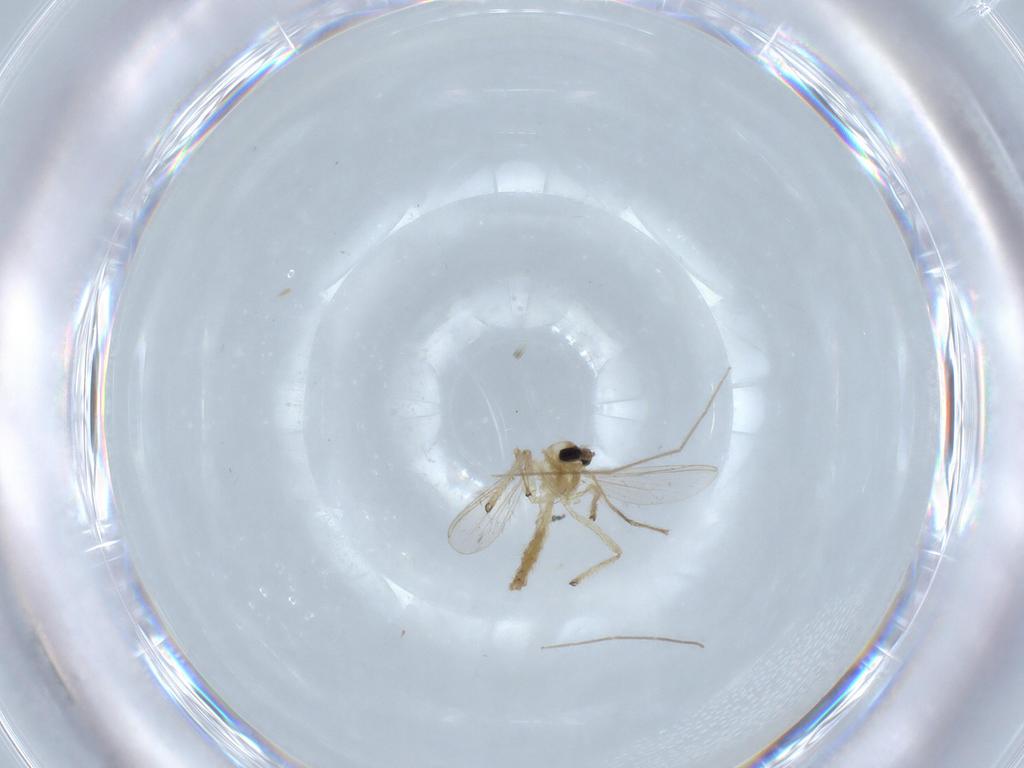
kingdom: Animalia
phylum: Arthropoda
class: Insecta
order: Diptera
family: Chironomidae
